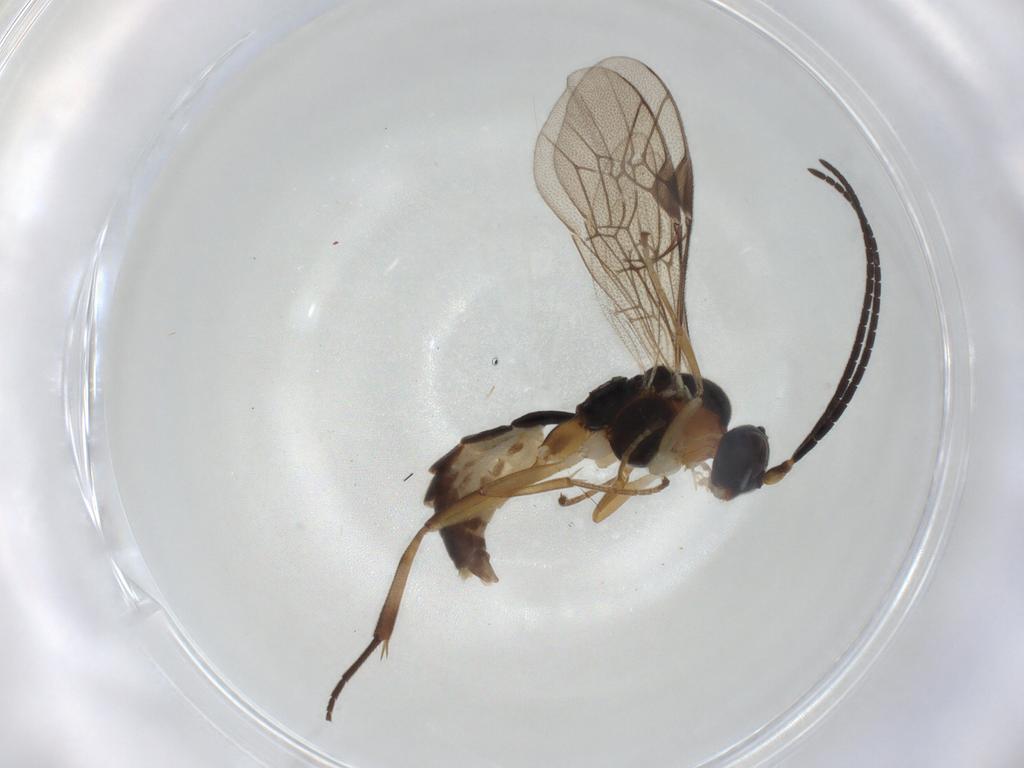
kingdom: Animalia
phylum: Arthropoda
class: Insecta
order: Hymenoptera
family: Ichneumonidae
